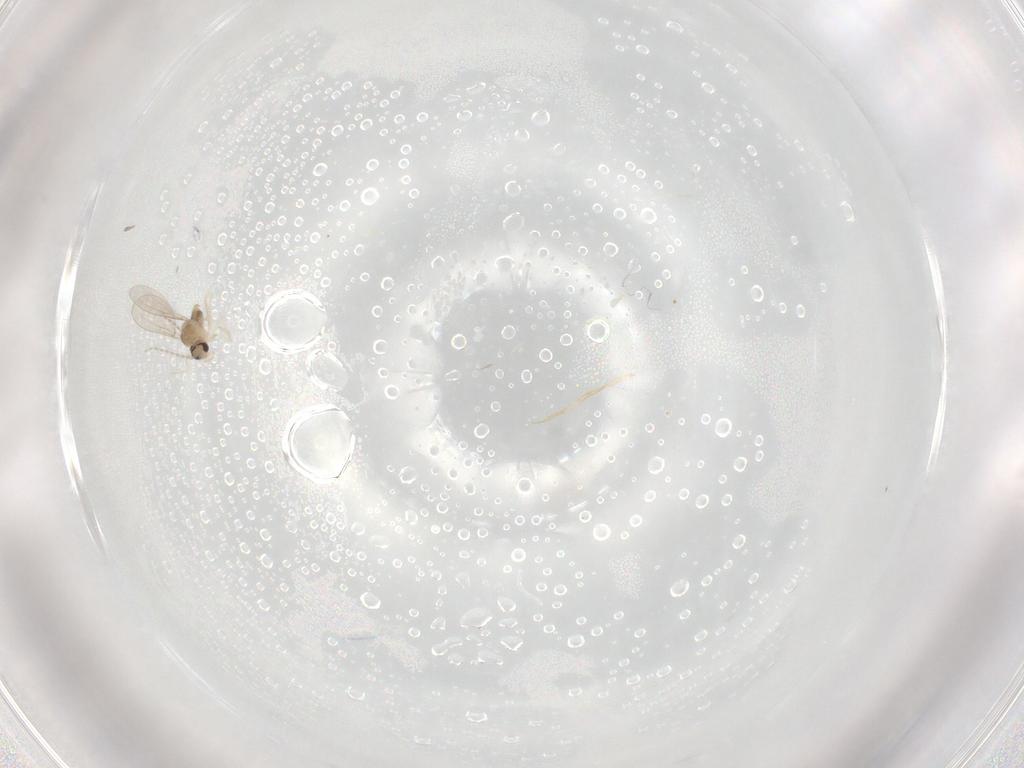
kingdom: Animalia
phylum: Arthropoda
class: Insecta
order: Diptera
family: Cecidomyiidae
